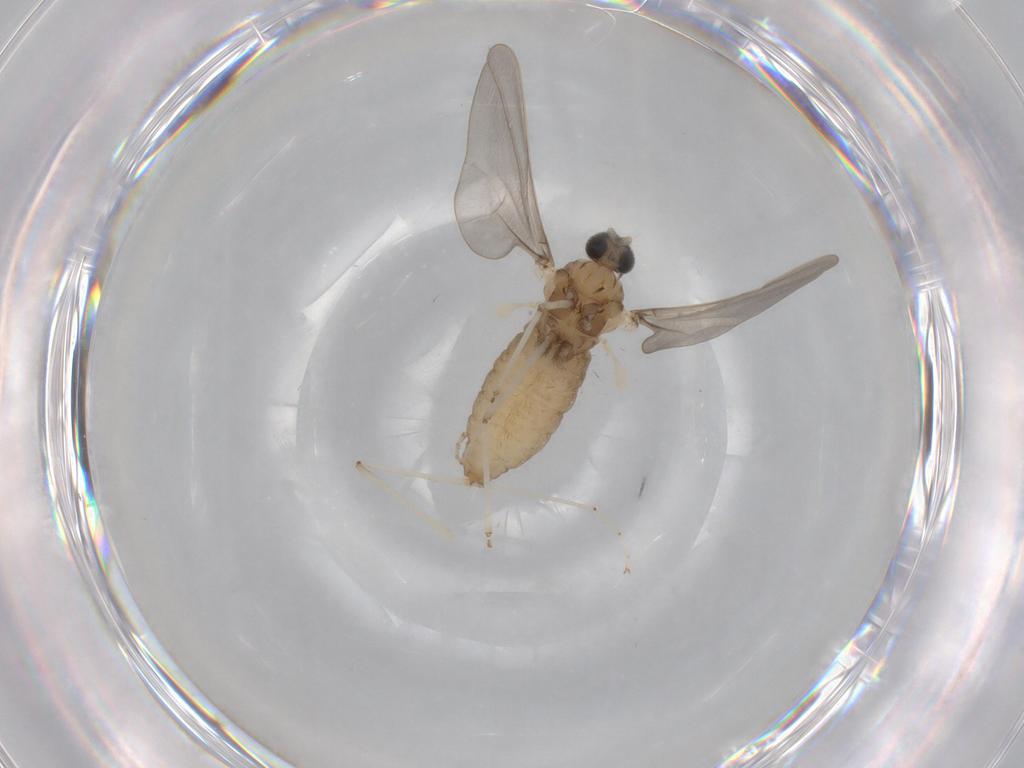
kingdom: Animalia
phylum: Arthropoda
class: Insecta
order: Diptera
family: Cecidomyiidae
